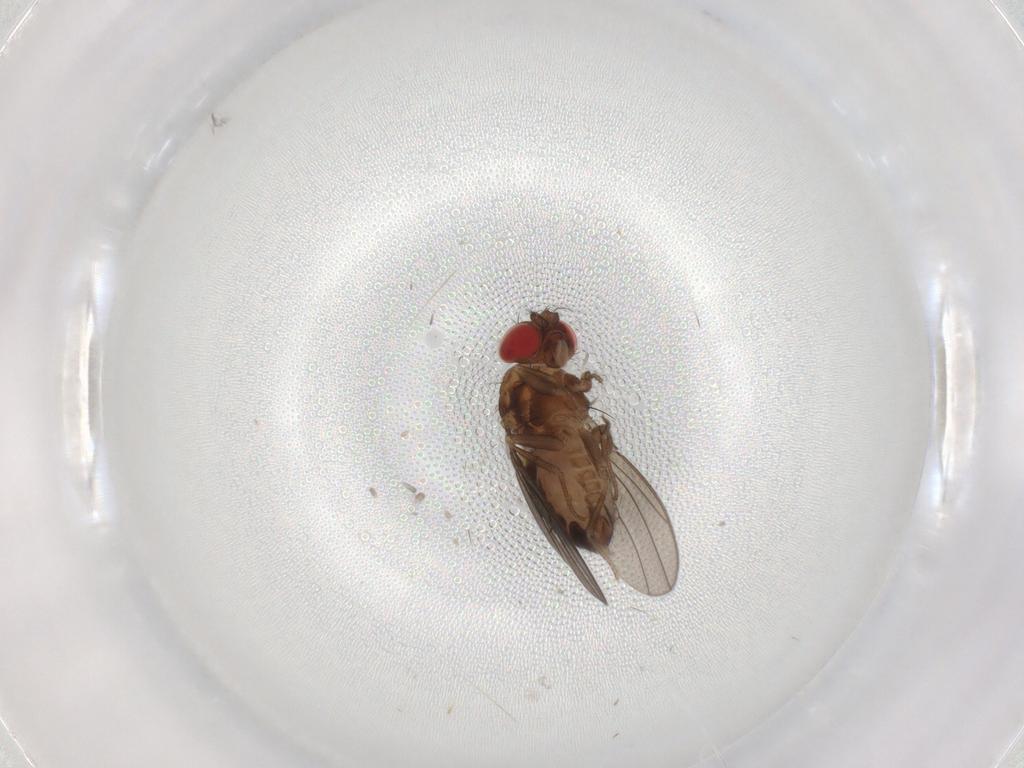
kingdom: Animalia
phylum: Arthropoda
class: Insecta
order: Diptera
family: Drosophilidae
